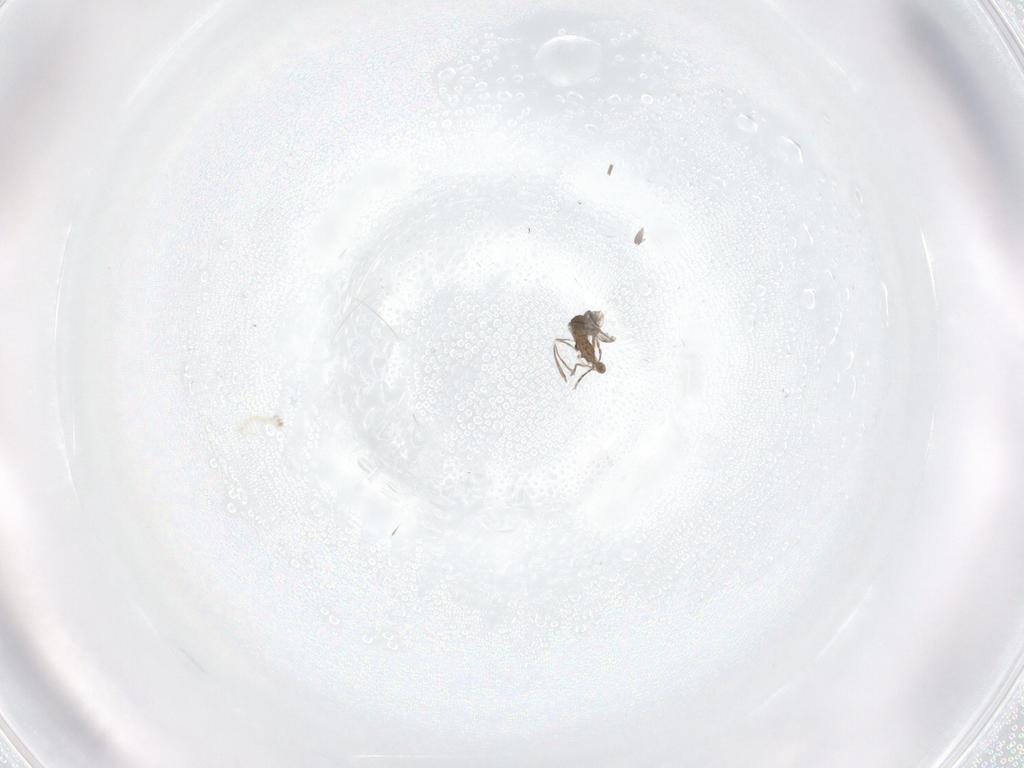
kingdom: Animalia
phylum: Arthropoda
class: Insecta
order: Diptera
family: Cecidomyiidae
